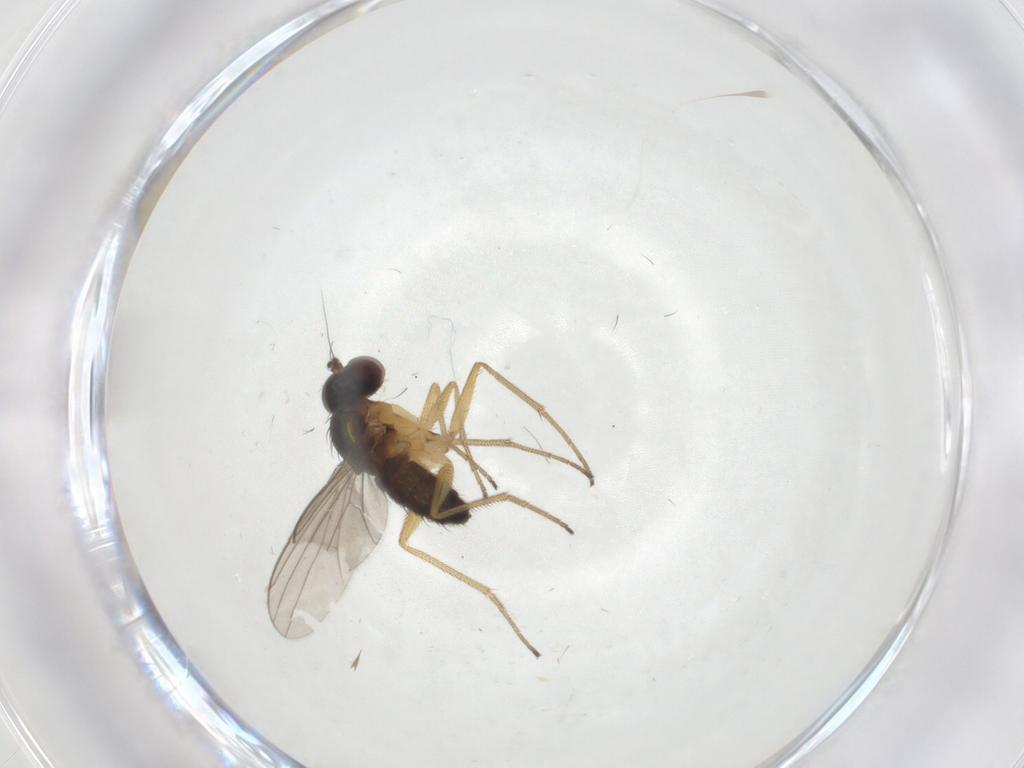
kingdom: Animalia
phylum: Arthropoda
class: Insecta
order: Diptera
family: Dolichopodidae
